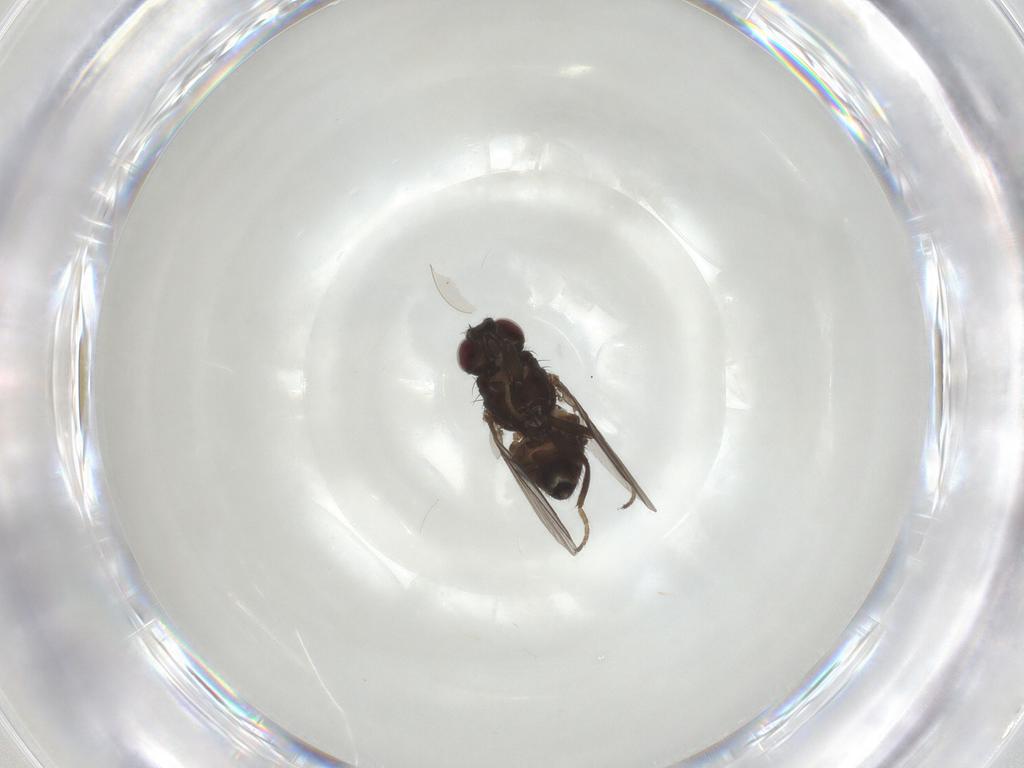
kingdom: Animalia
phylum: Arthropoda
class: Insecta
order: Diptera
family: Agromyzidae
